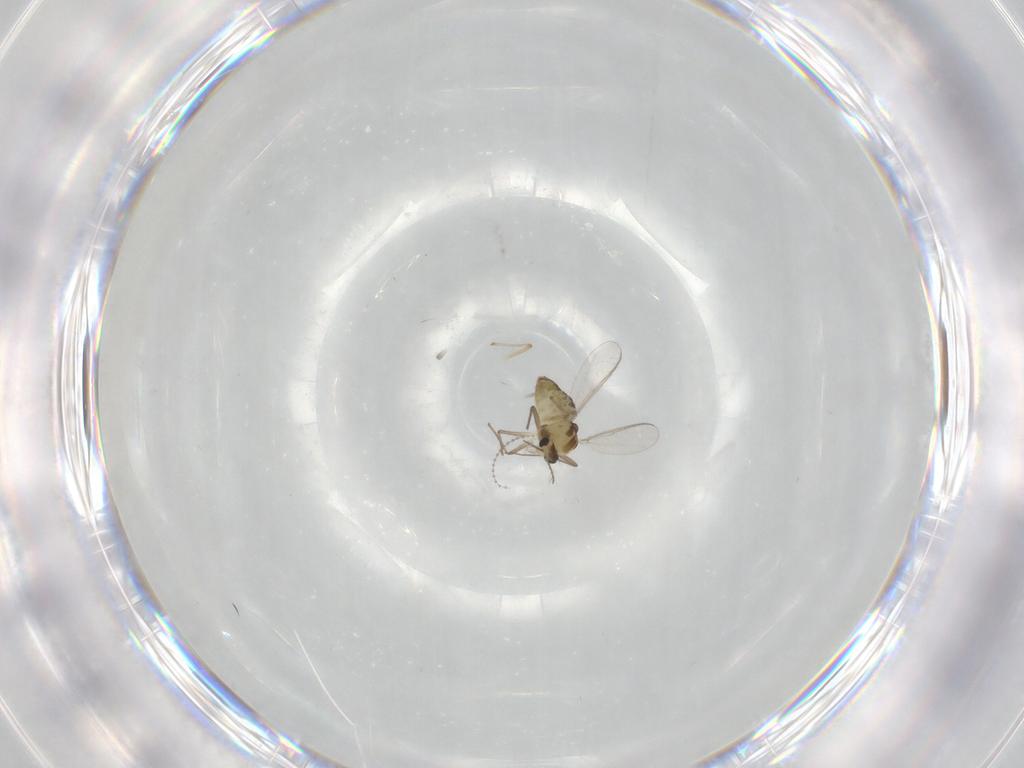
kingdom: Animalia
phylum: Arthropoda
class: Insecta
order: Diptera
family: Chironomidae
